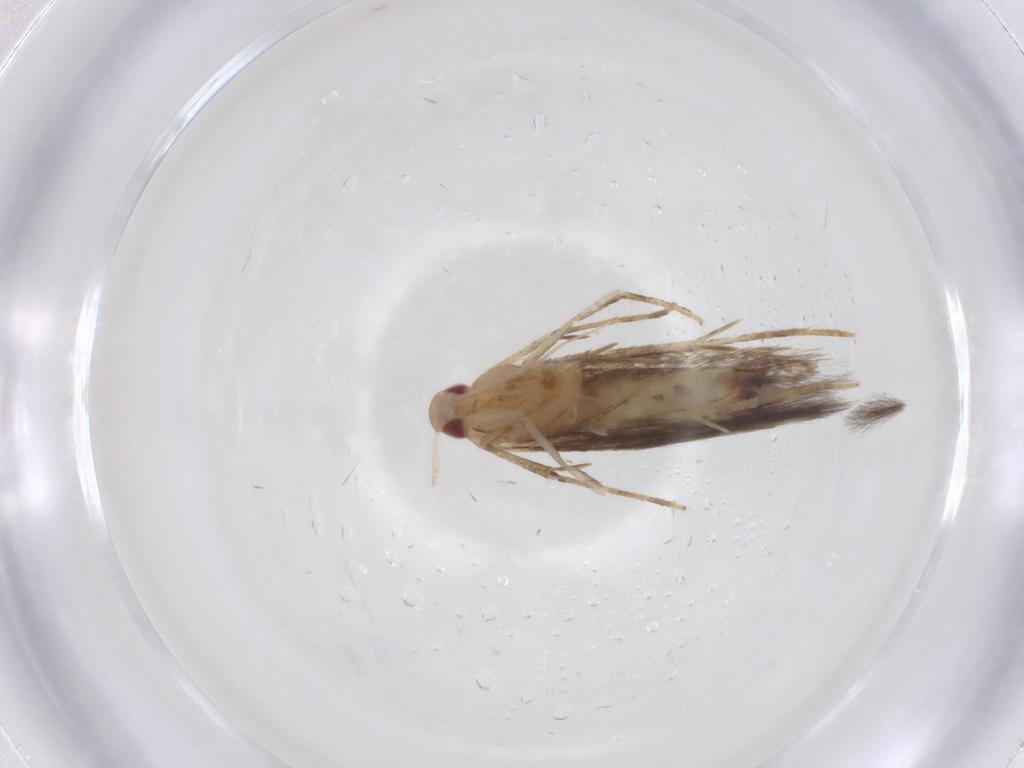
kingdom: Animalia
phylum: Arthropoda
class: Insecta
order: Lepidoptera
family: Cosmopterigidae
